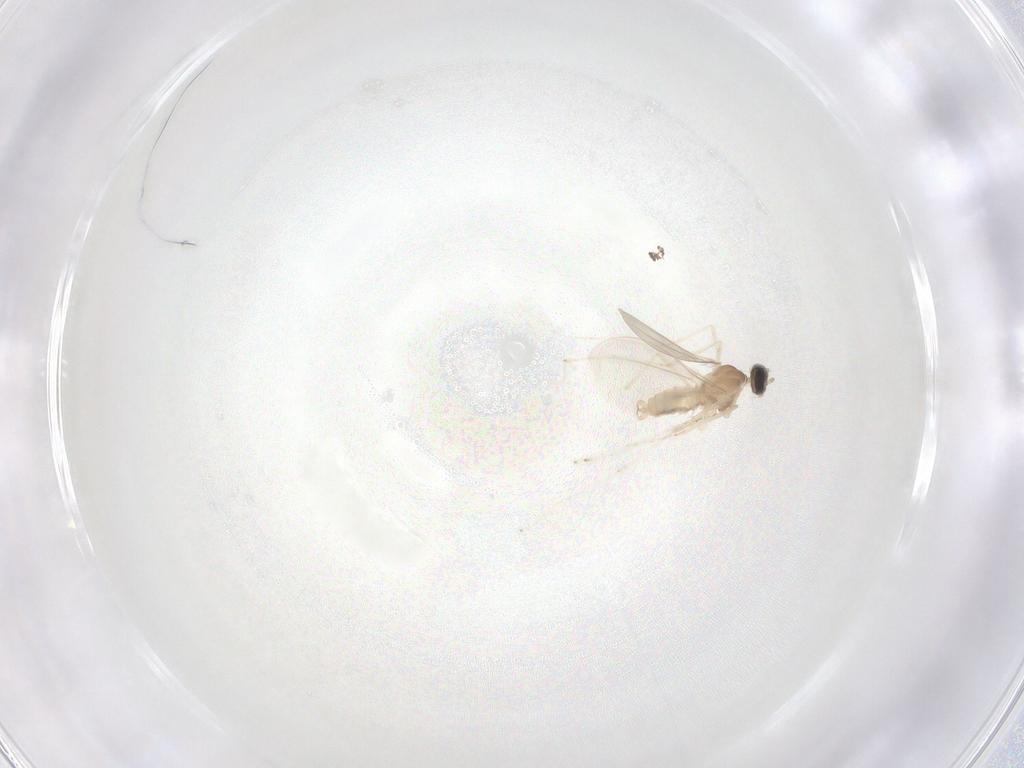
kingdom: Animalia
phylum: Arthropoda
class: Insecta
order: Diptera
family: Cecidomyiidae
